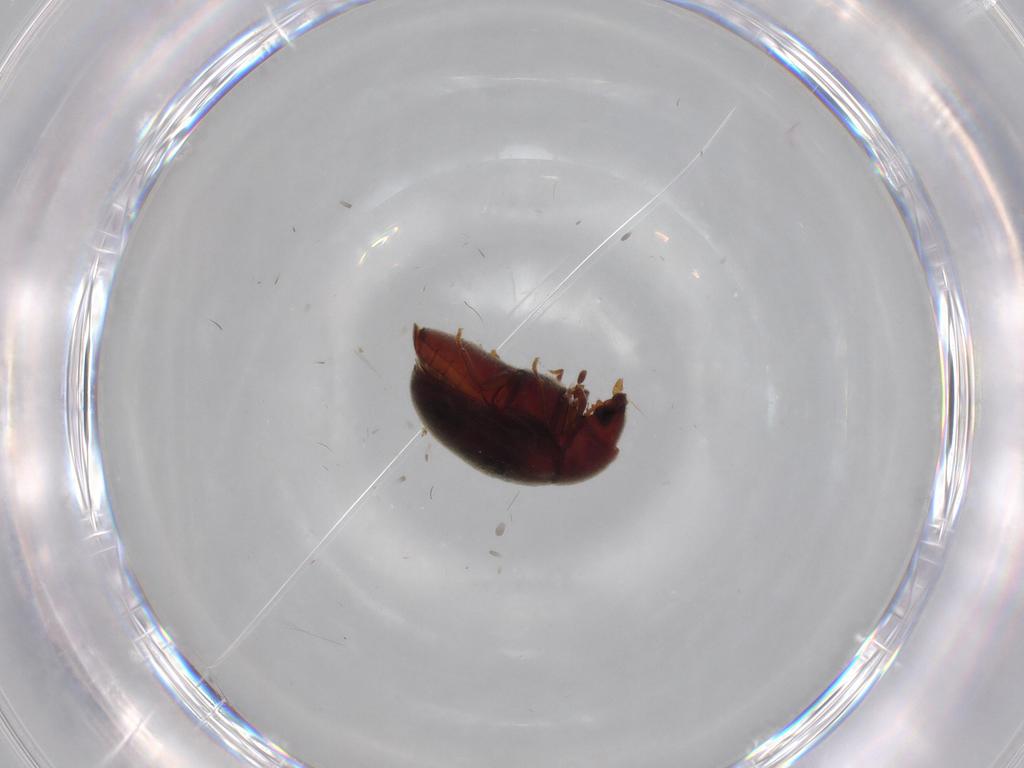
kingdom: Animalia
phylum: Arthropoda
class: Insecta
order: Coleoptera
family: Ptinidae
